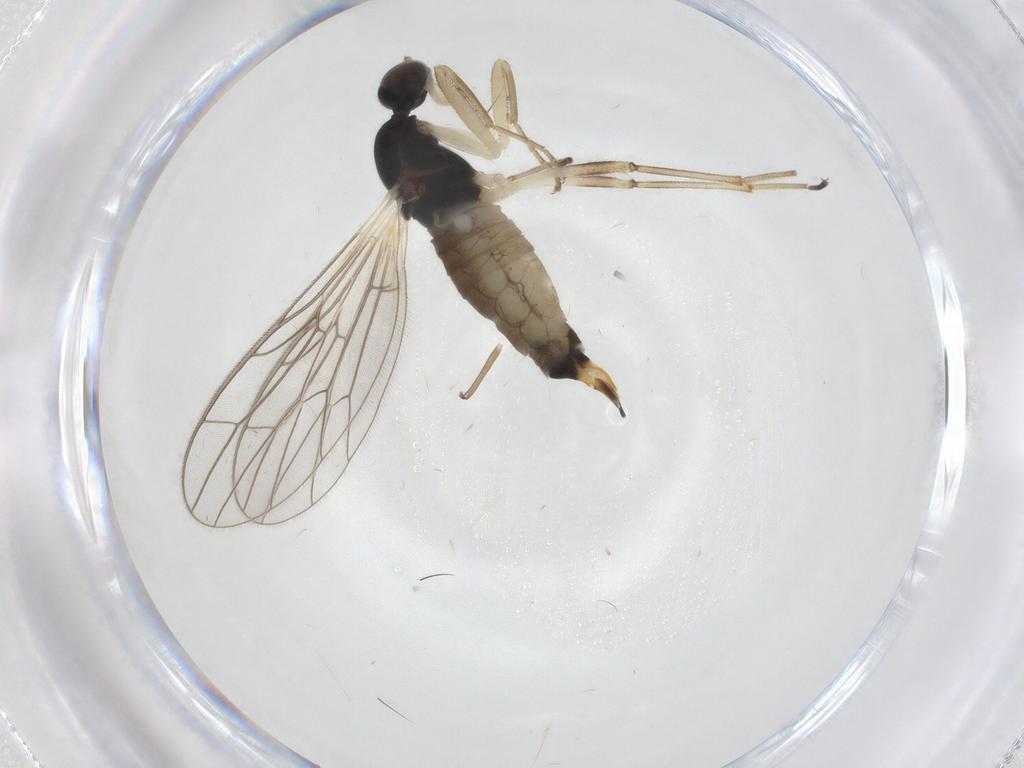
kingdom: Animalia
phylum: Arthropoda
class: Insecta
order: Diptera
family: Empididae
